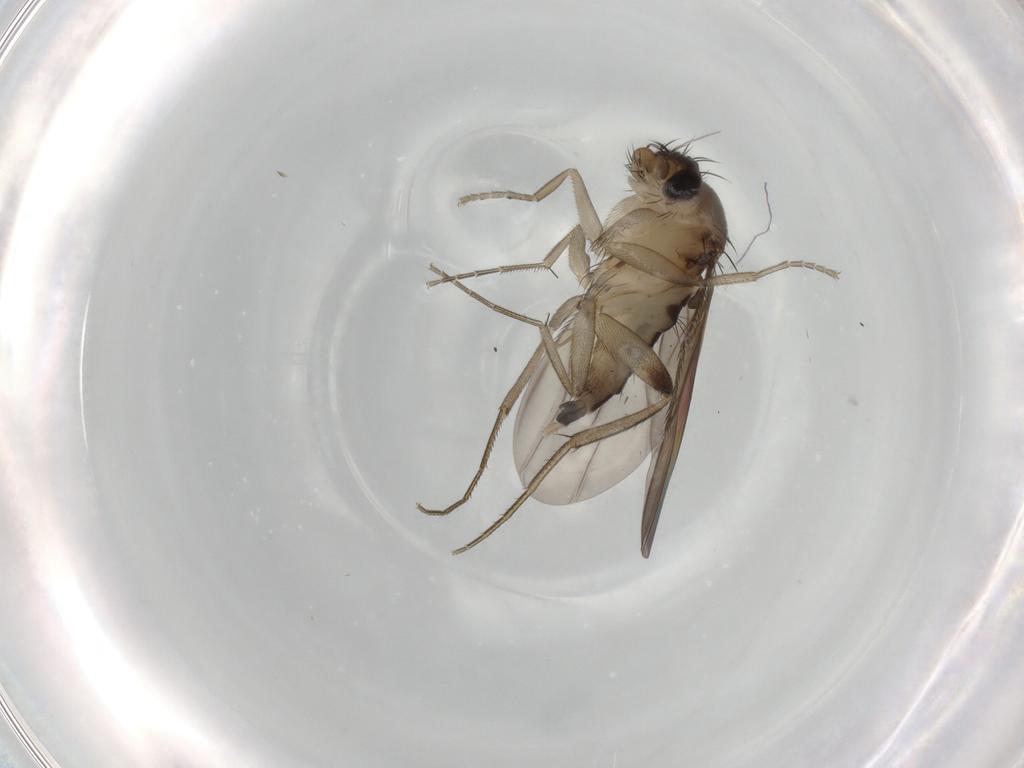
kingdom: Animalia
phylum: Arthropoda
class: Insecta
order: Diptera
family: Phoridae
